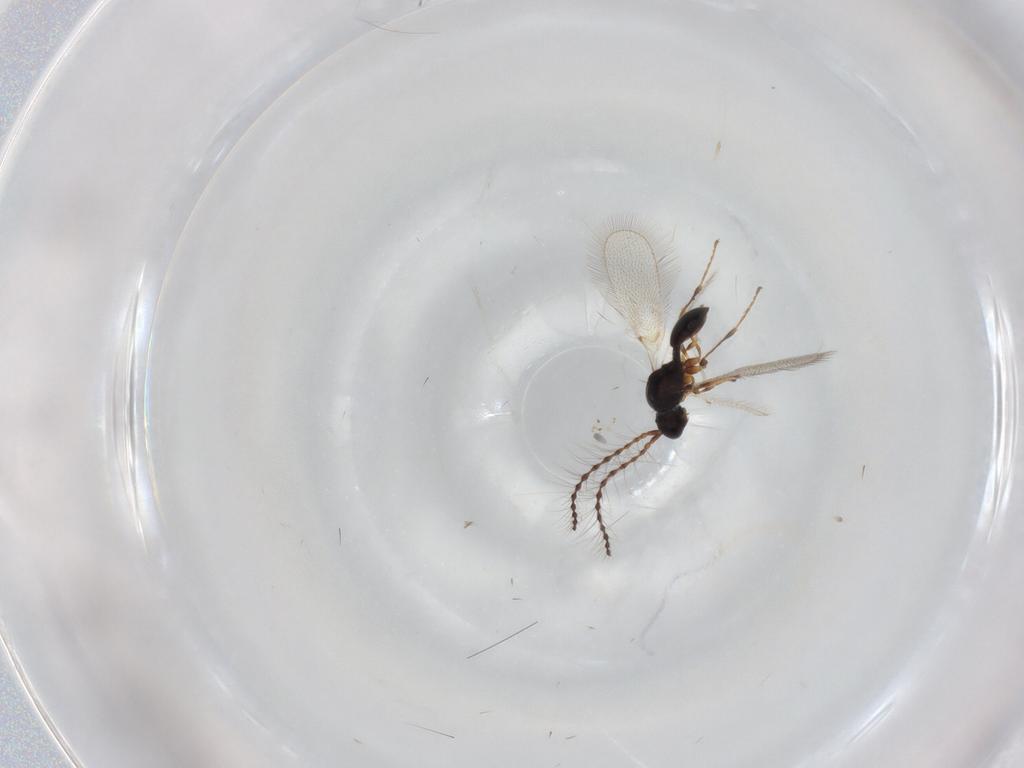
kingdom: Animalia
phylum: Arthropoda
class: Insecta
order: Hymenoptera
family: Diapriidae
